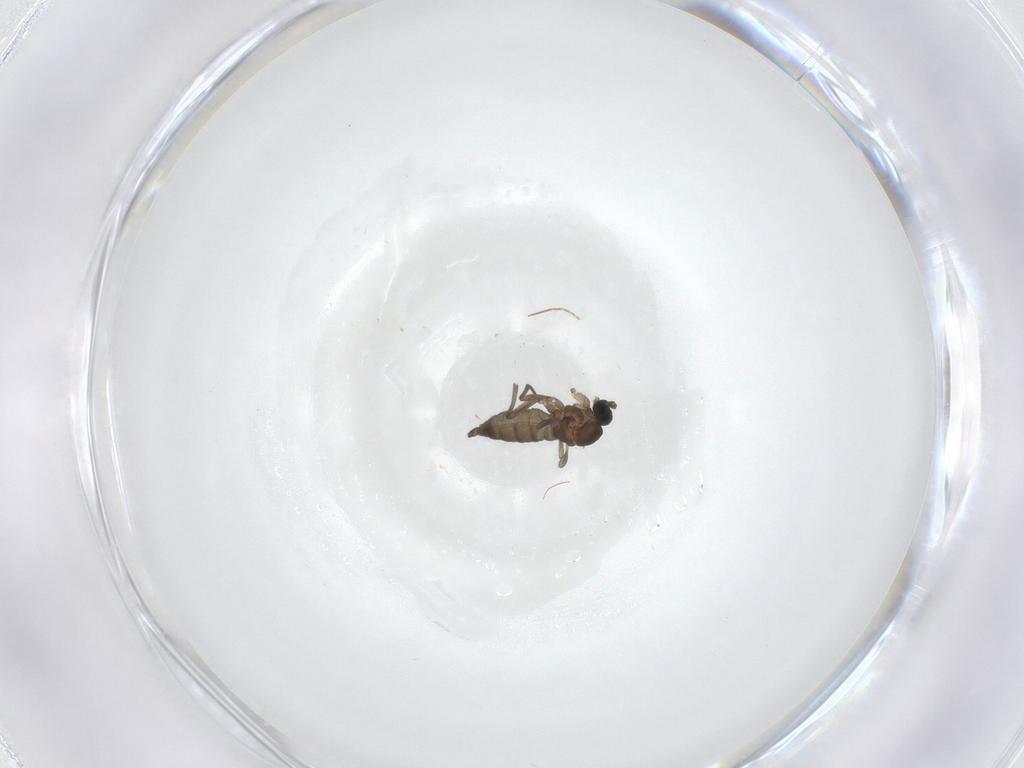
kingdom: Animalia
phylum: Arthropoda
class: Insecta
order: Diptera
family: Chironomidae
